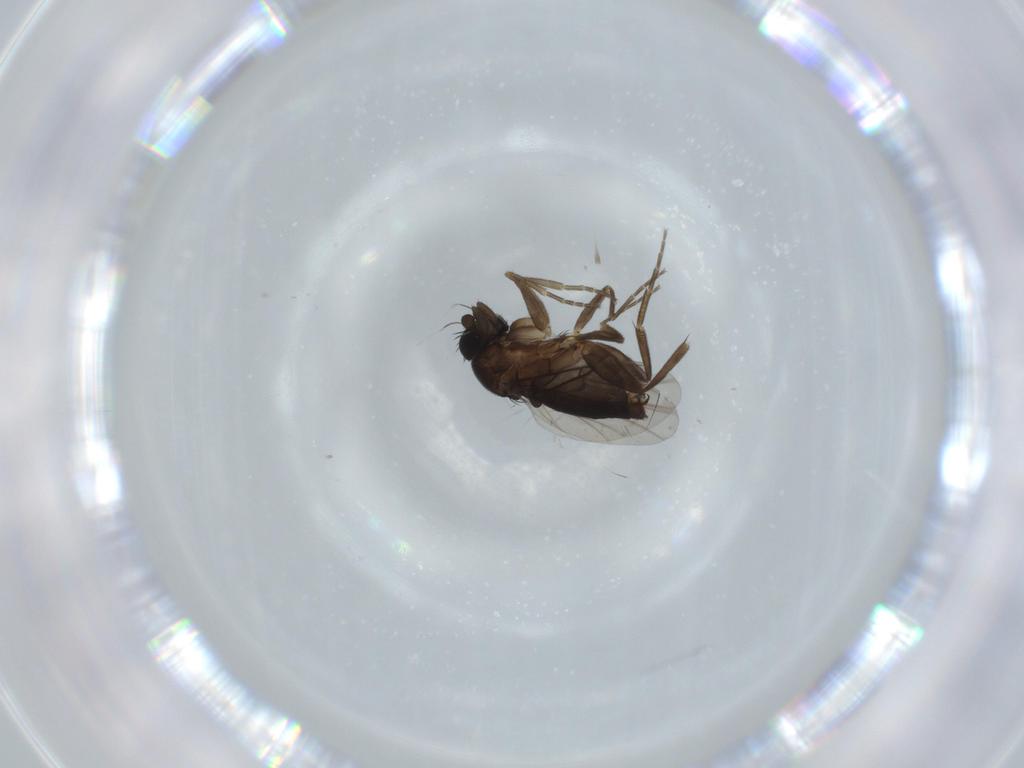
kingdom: Animalia
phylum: Arthropoda
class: Insecta
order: Diptera
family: Phoridae
